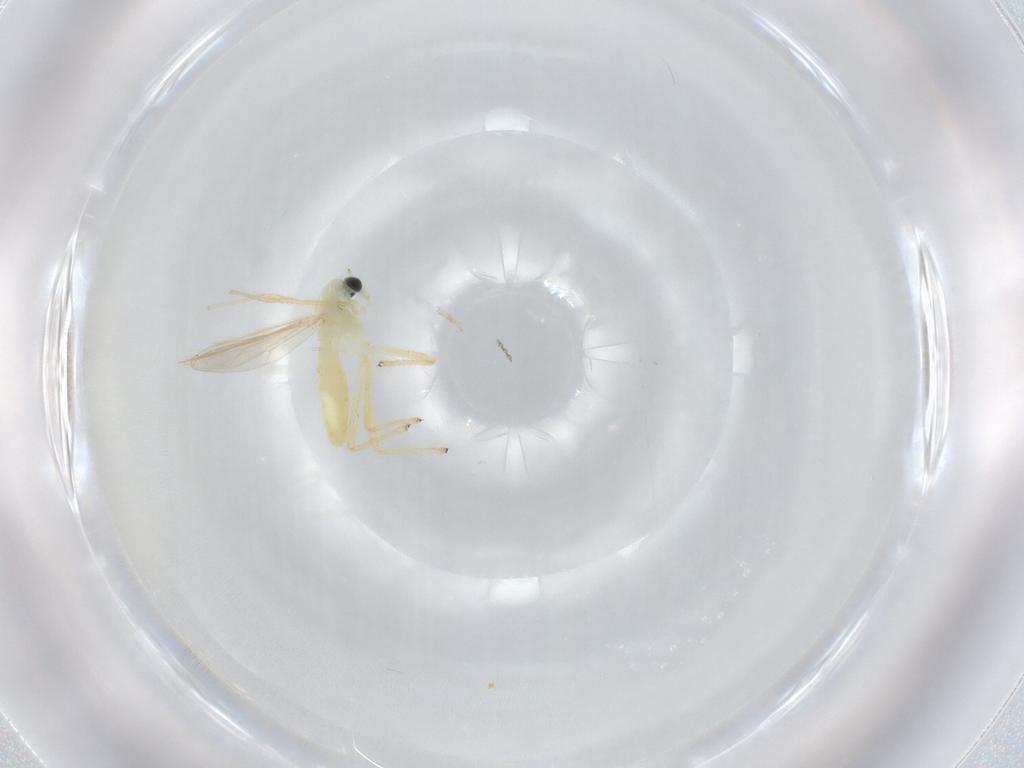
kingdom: Animalia
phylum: Arthropoda
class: Insecta
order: Diptera
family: Chironomidae
